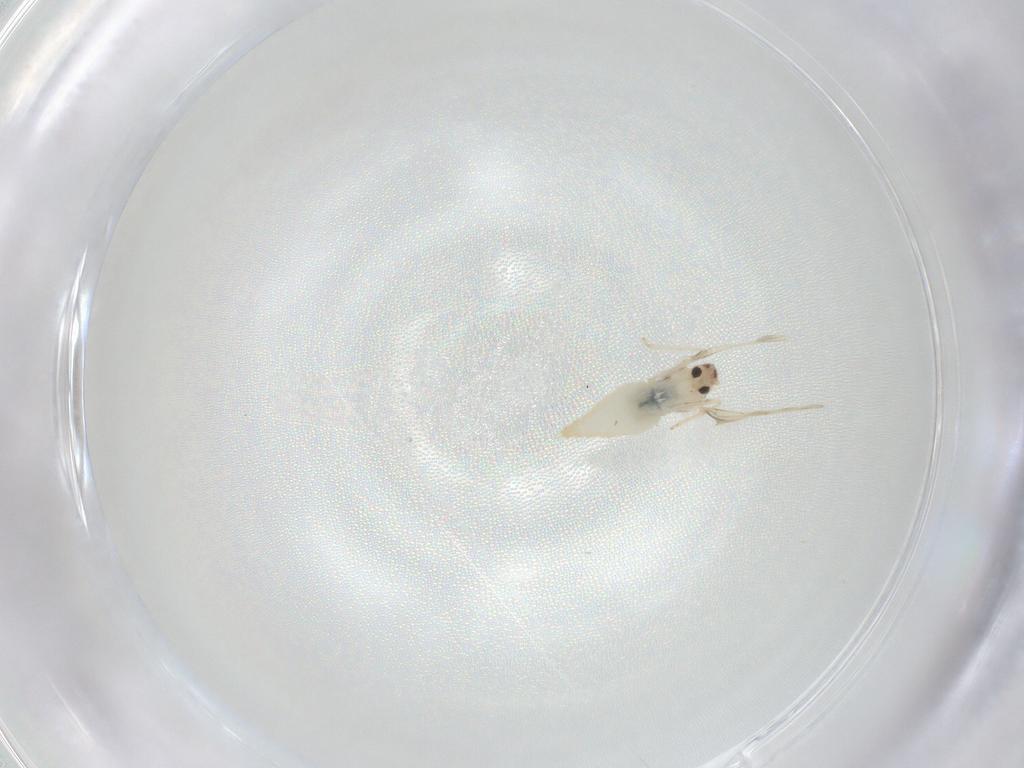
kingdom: Animalia
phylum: Arthropoda
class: Insecta
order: Diptera
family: Cecidomyiidae
